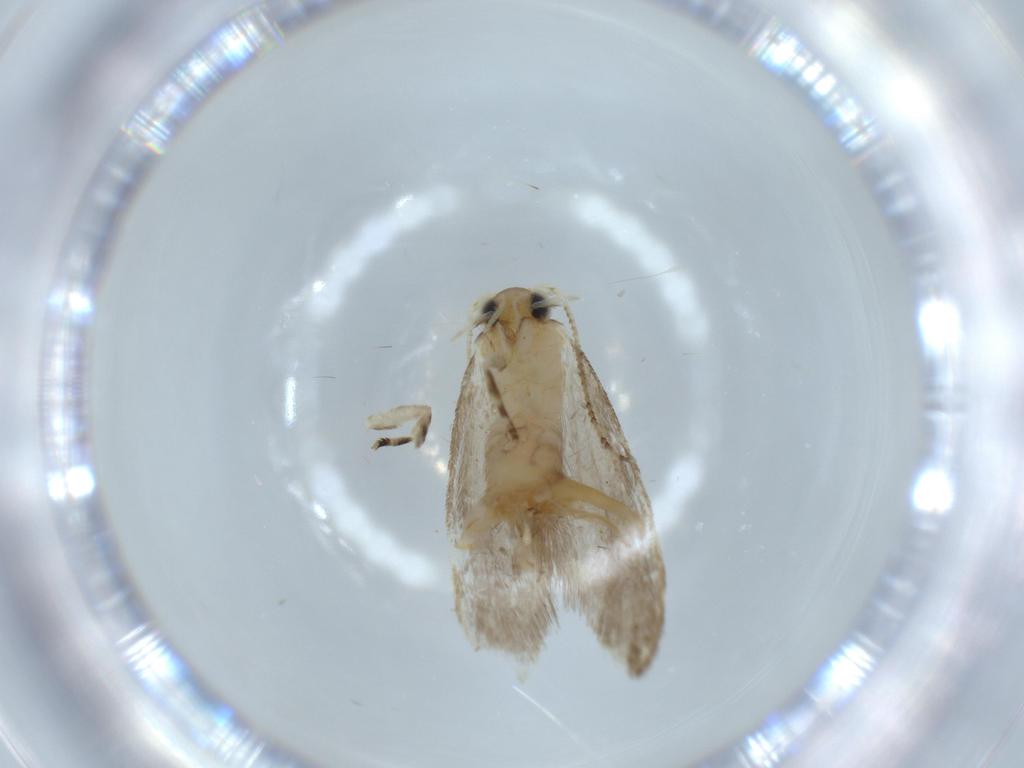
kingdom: Animalia
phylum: Arthropoda
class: Insecta
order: Lepidoptera
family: Tineidae
